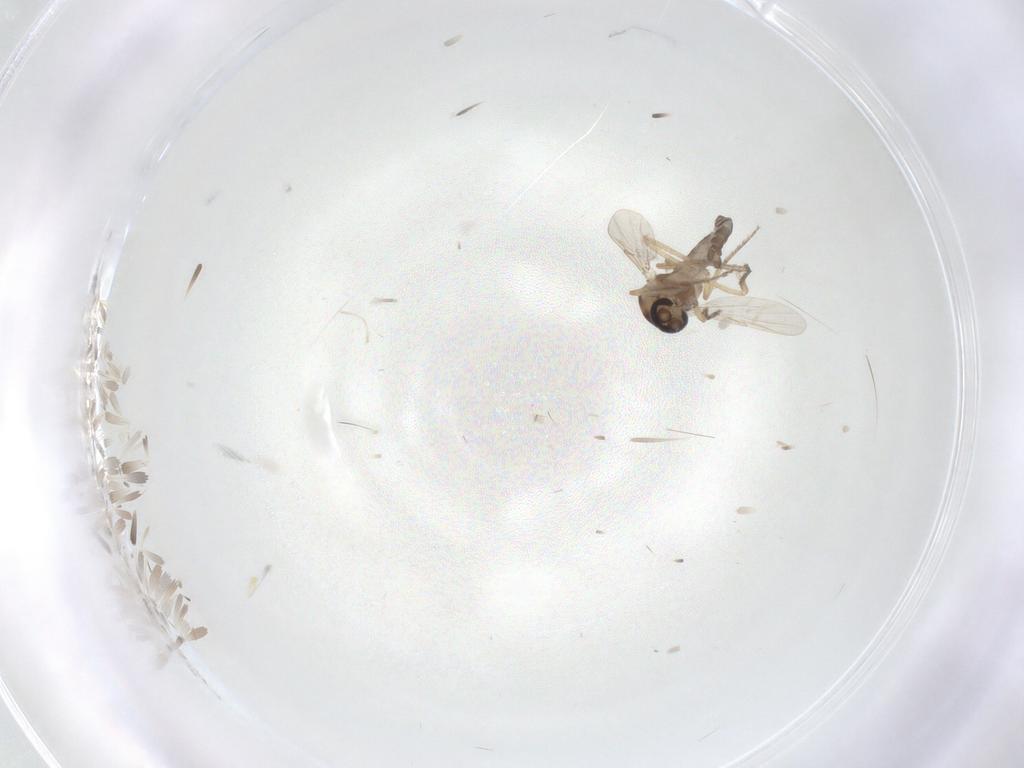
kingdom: Animalia
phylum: Arthropoda
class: Insecta
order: Diptera
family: Ceratopogonidae
